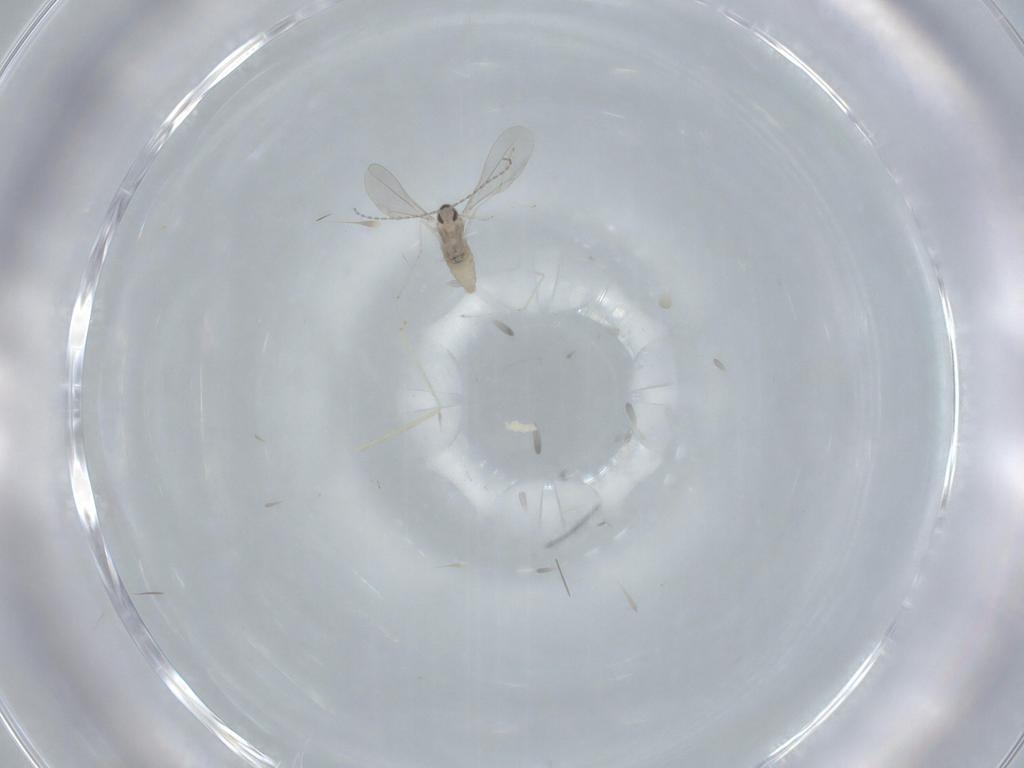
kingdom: Animalia
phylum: Arthropoda
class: Insecta
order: Diptera
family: Cecidomyiidae
